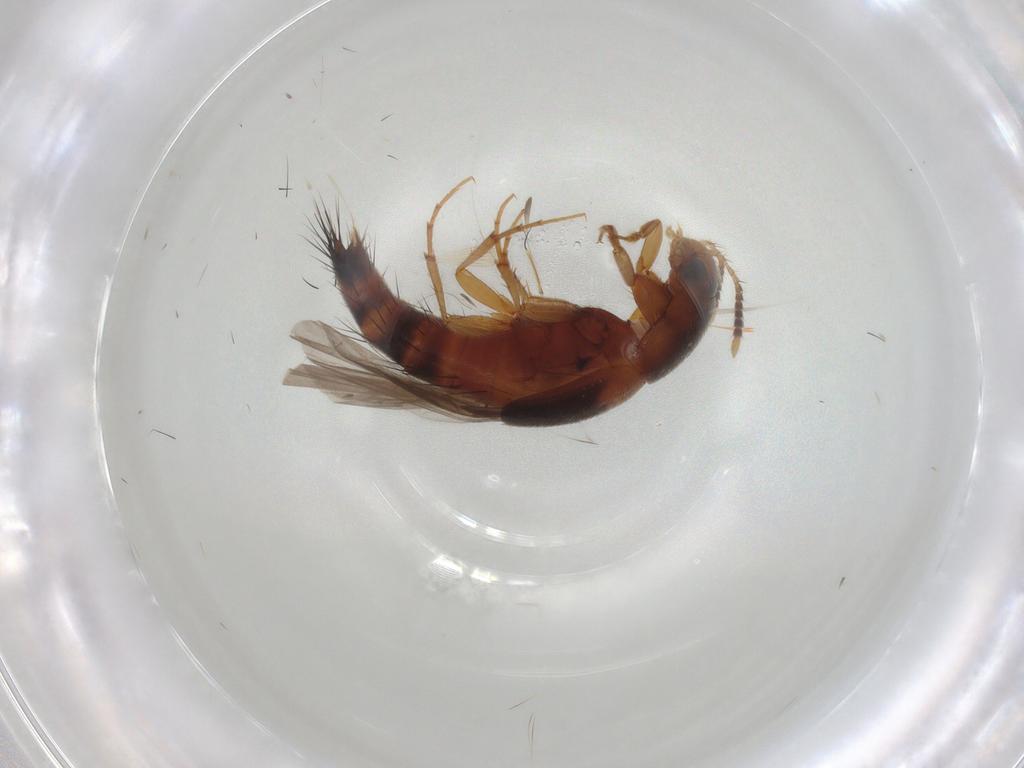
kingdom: Animalia
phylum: Arthropoda
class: Insecta
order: Coleoptera
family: Staphylinidae
